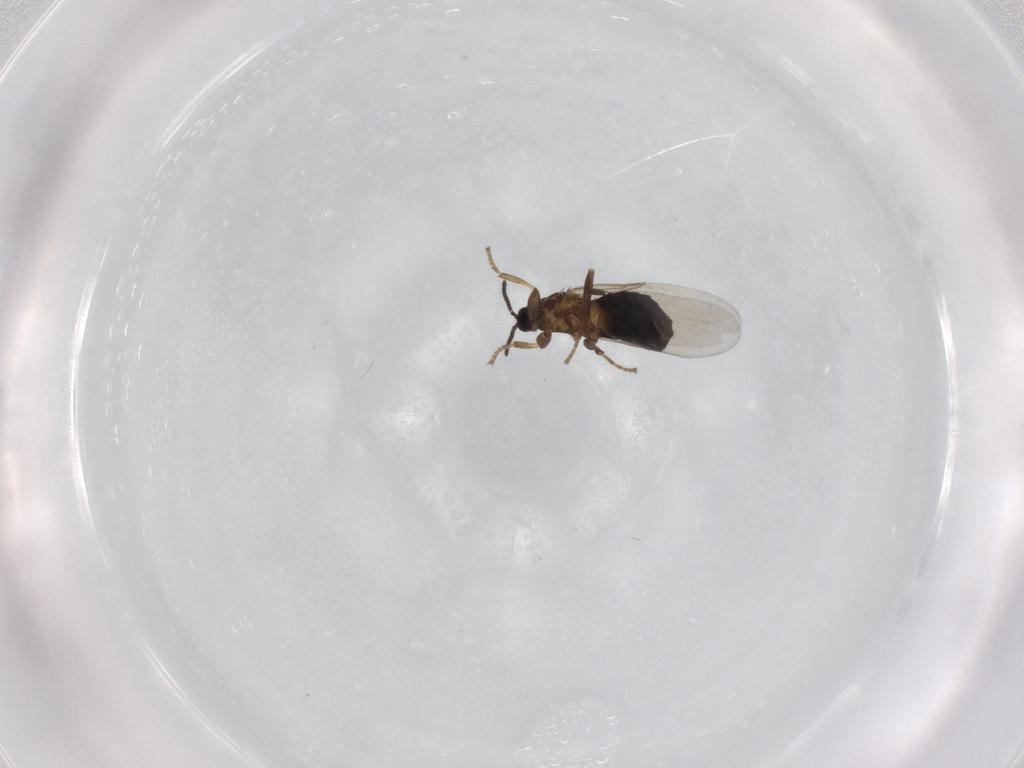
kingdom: Animalia
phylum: Arthropoda
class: Insecta
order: Diptera
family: Scatopsidae
